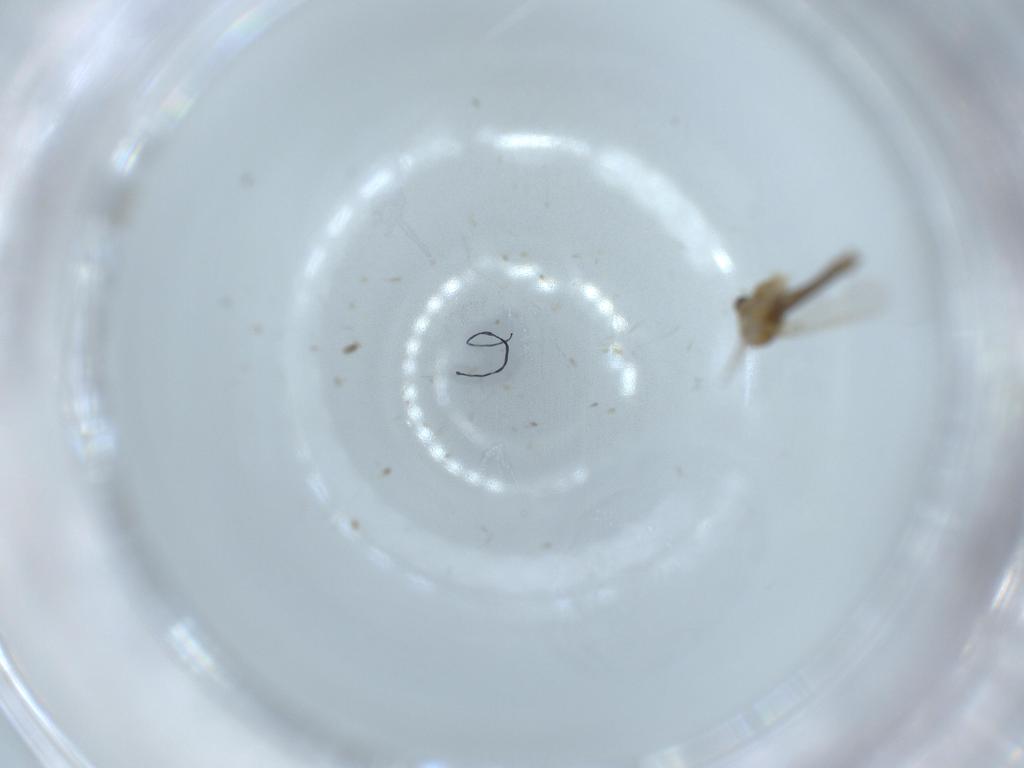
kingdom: Animalia
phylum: Arthropoda
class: Insecta
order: Diptera
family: Chironomidae
